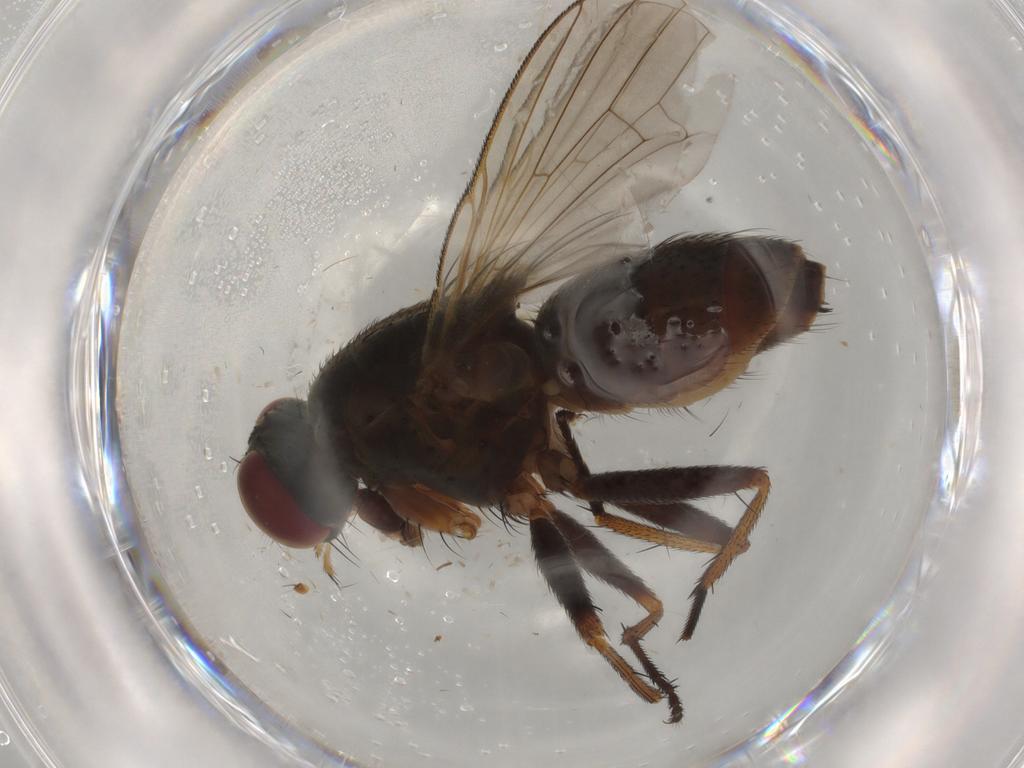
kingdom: Animalia
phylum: Arthropoda
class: Insecta
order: Diptera
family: Muscidae
